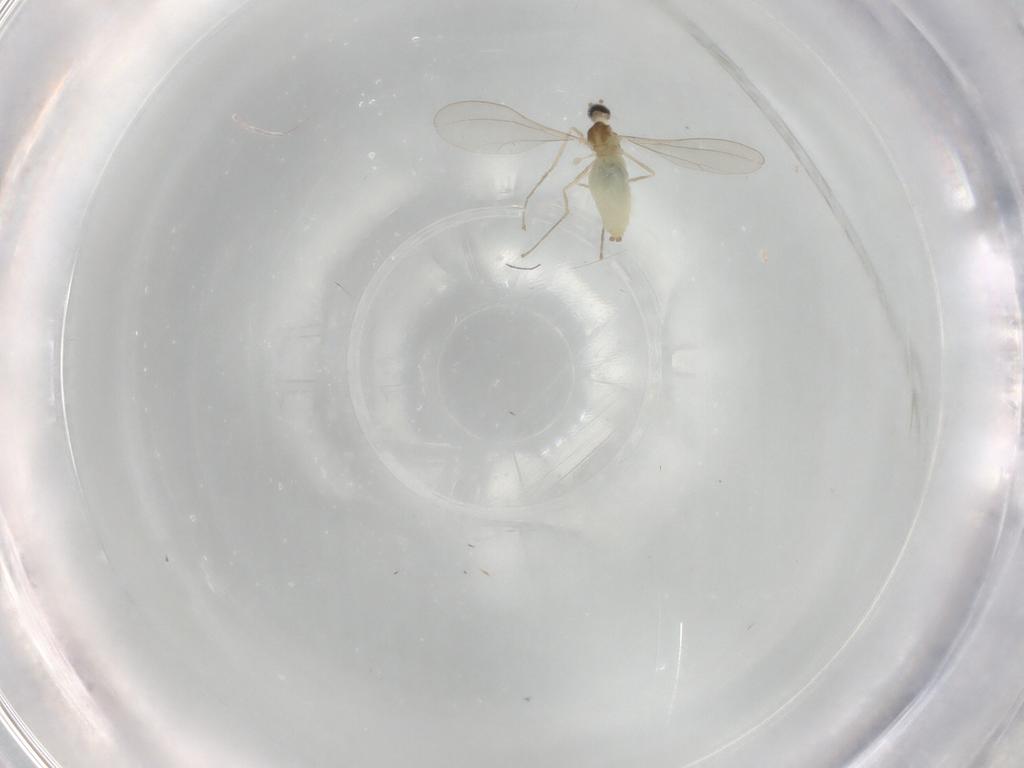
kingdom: Animalia
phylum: Arthropoda
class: Insecta
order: Diptera
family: Cecidomyiidae
